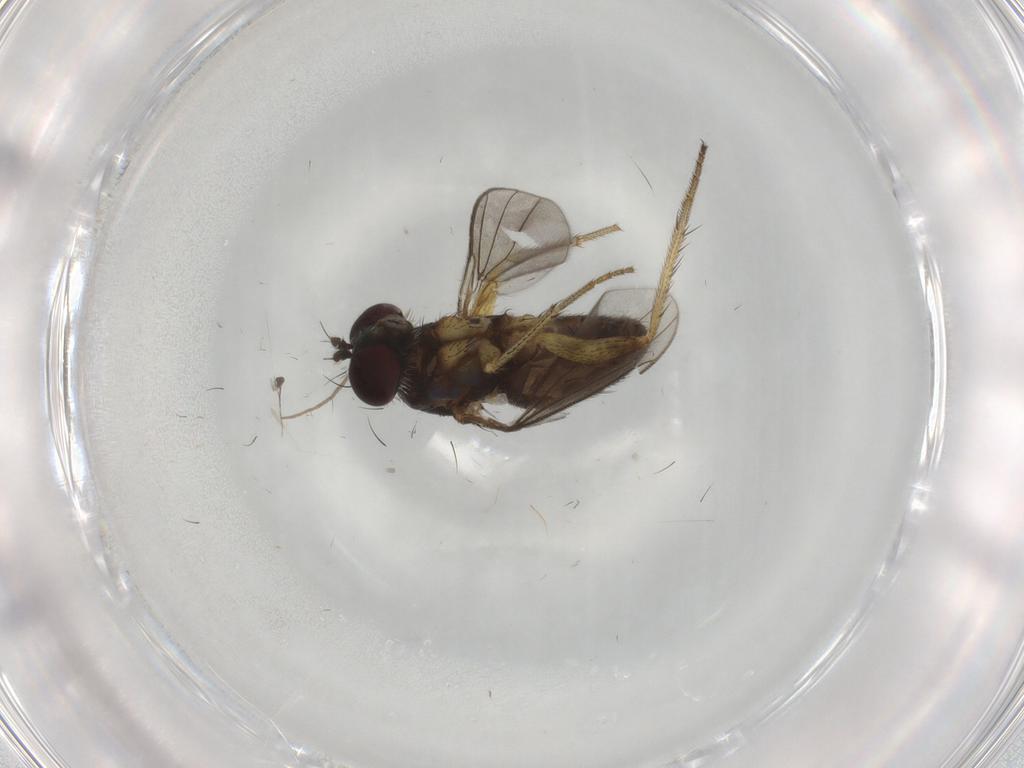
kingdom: Animalia
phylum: Arthropoda
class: Insecta
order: Diptera
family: Dolichopodidae
